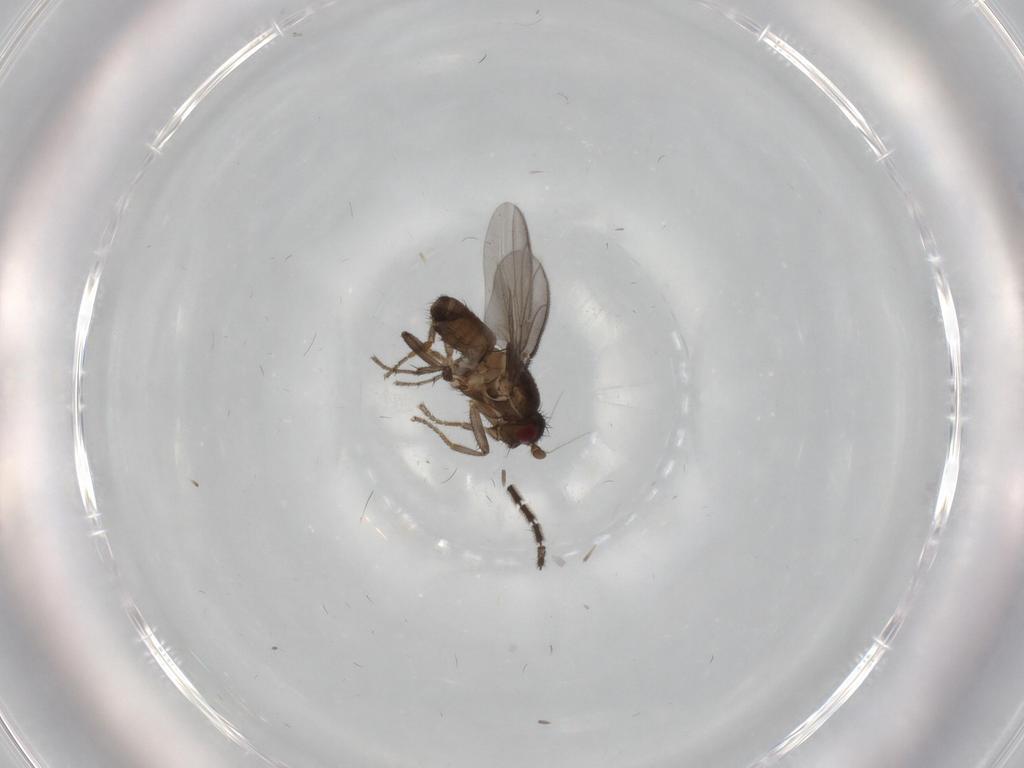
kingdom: Animalia
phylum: Arthropoda
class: Insecta
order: Diptera
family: Sphaeroceridae
